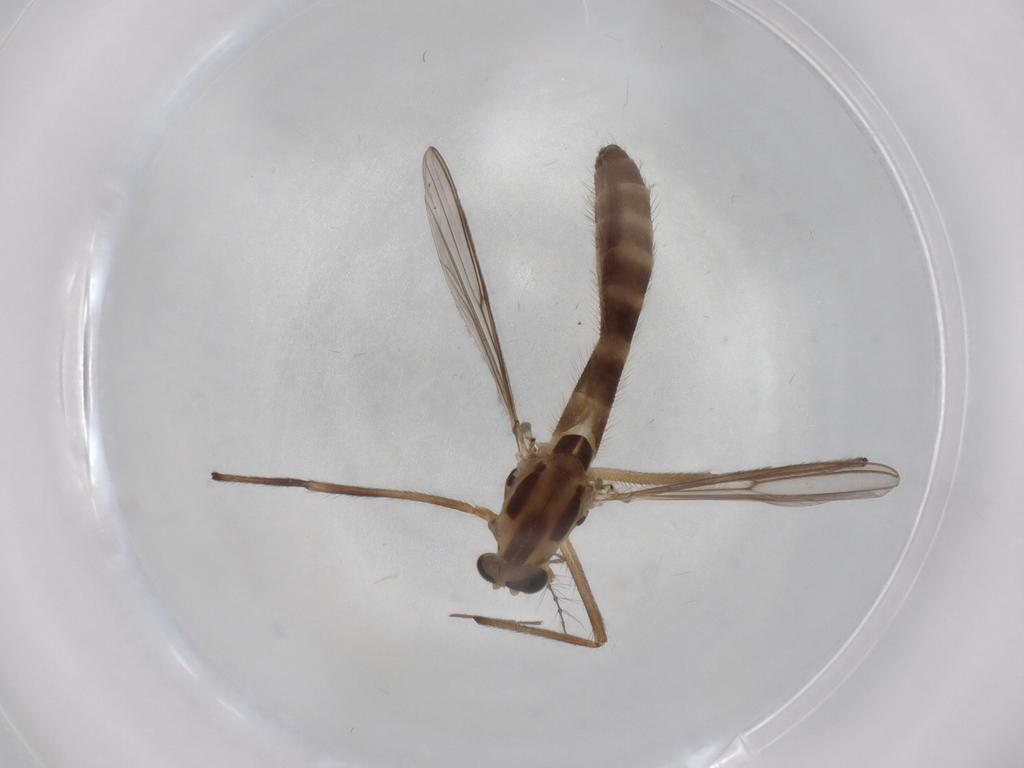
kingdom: Animalia
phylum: Arthropoda
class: Insecta
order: Diptera
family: Chironomidae
